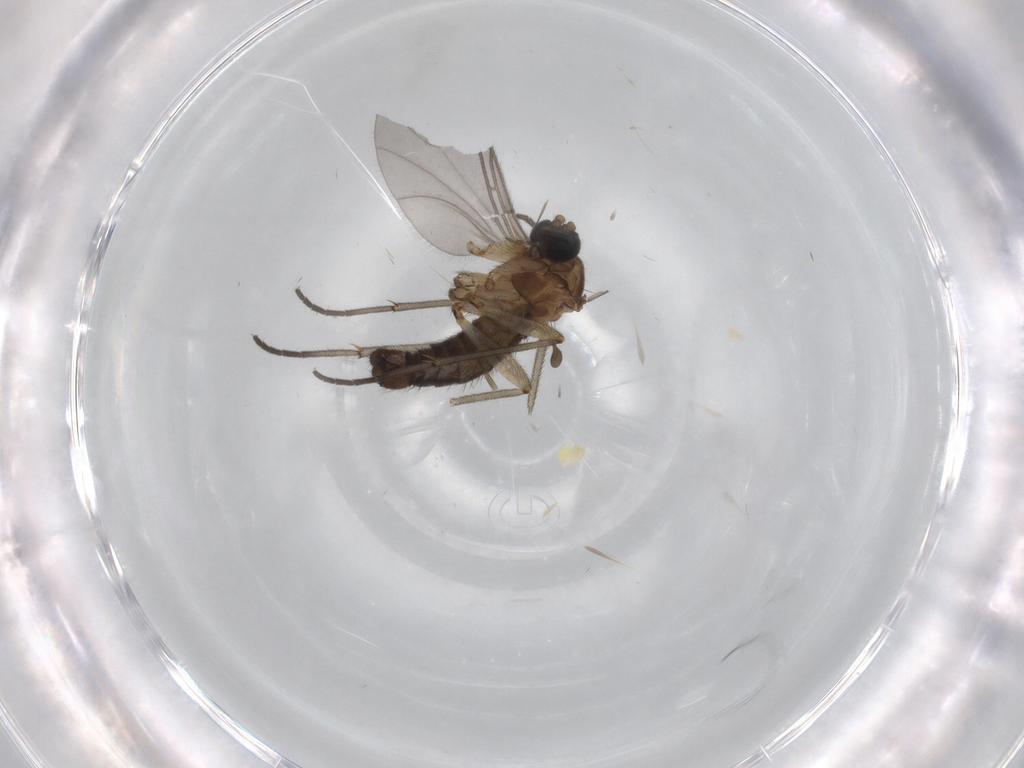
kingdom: Animalia
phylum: Arthropoda
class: Insecta
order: Diptera
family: Sciaridae
